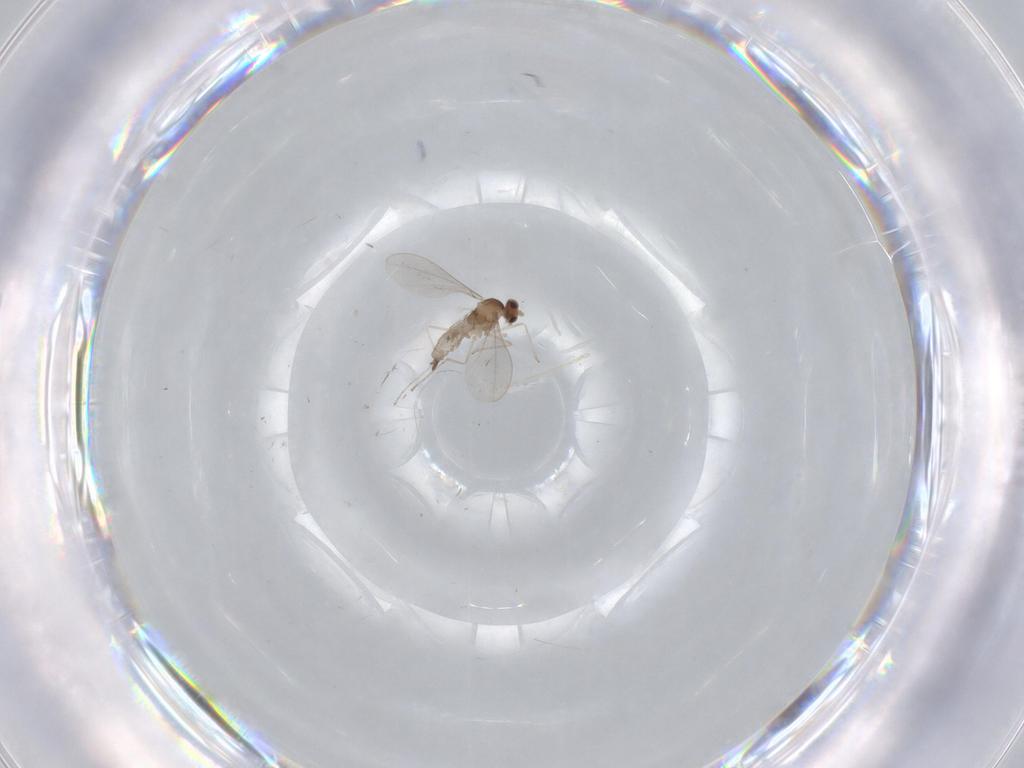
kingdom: Animalia
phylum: Arthropoda
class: Insecta
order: Diptera
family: Cecidomyiidae
